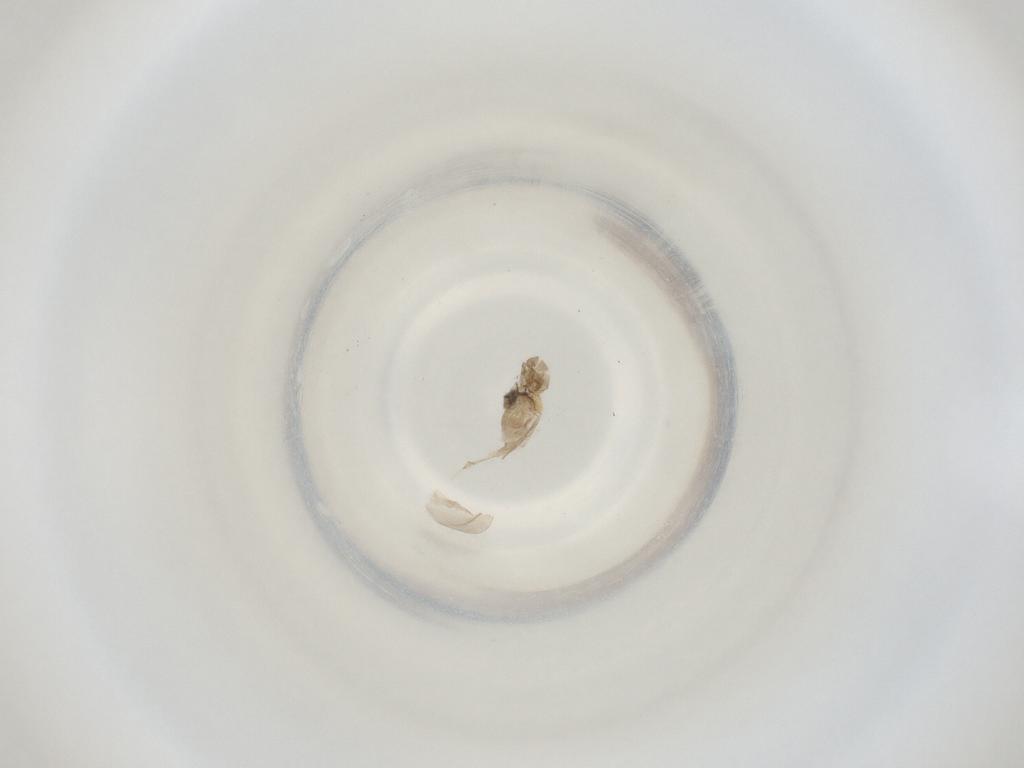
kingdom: Animalia
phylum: Arthropoda
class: Insecta
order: Diptera
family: Cecidomyiidae
